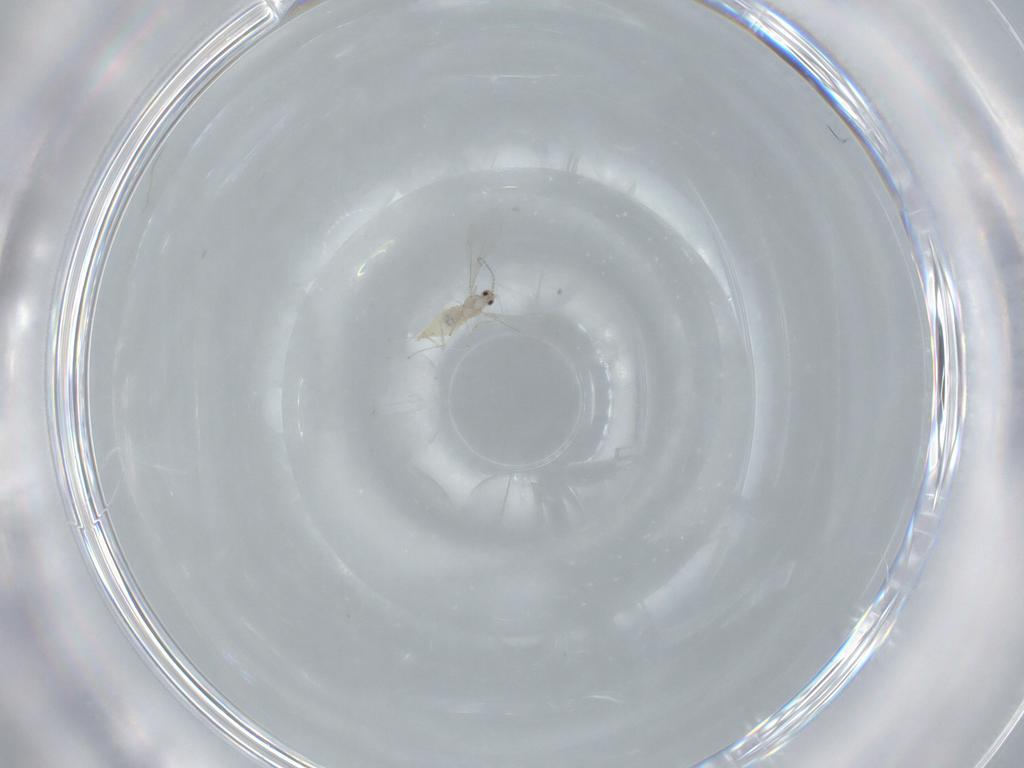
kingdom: Animalia
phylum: Arthropoda
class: Insecta
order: Diptera
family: Cecidomyiidae
